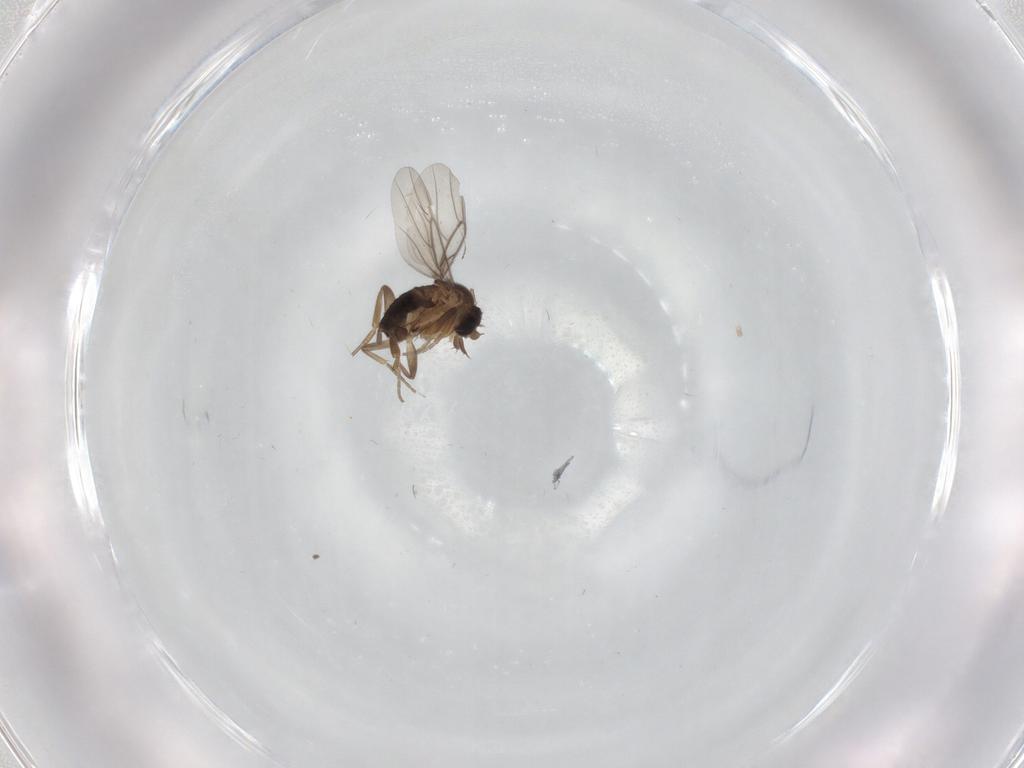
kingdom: Animalia
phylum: Arthropoda
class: Insecta
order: Diptera
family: Phoridae
